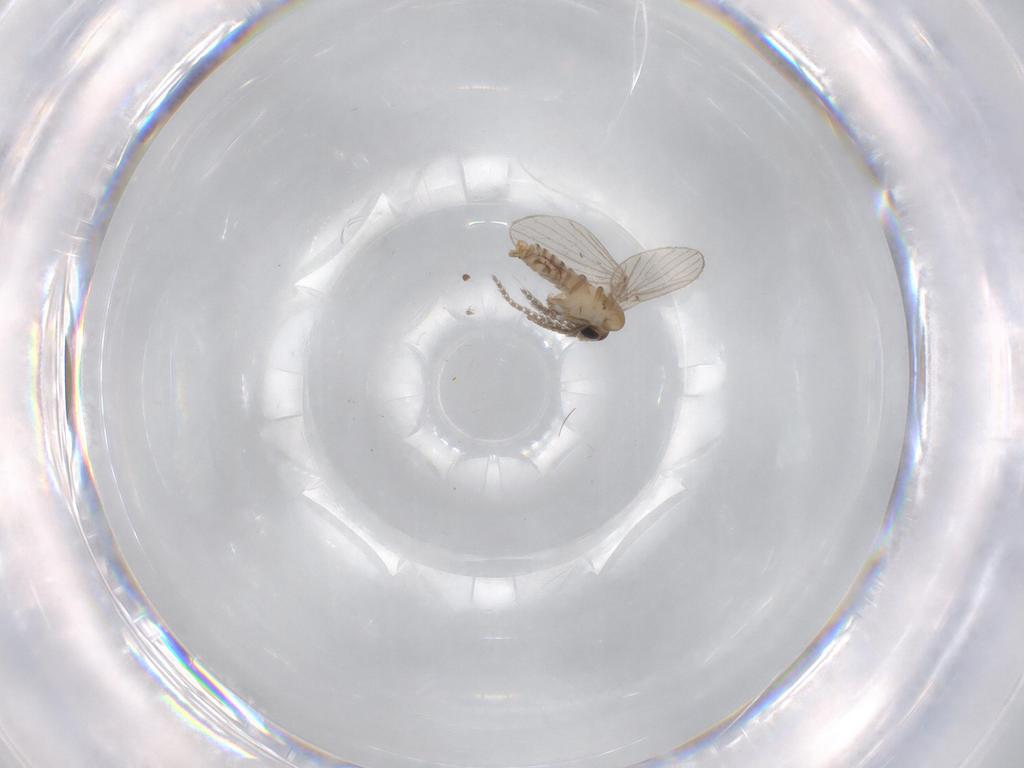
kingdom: Animalia
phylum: Arthropoda
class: Insecta
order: Diptera
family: Hybotidae
